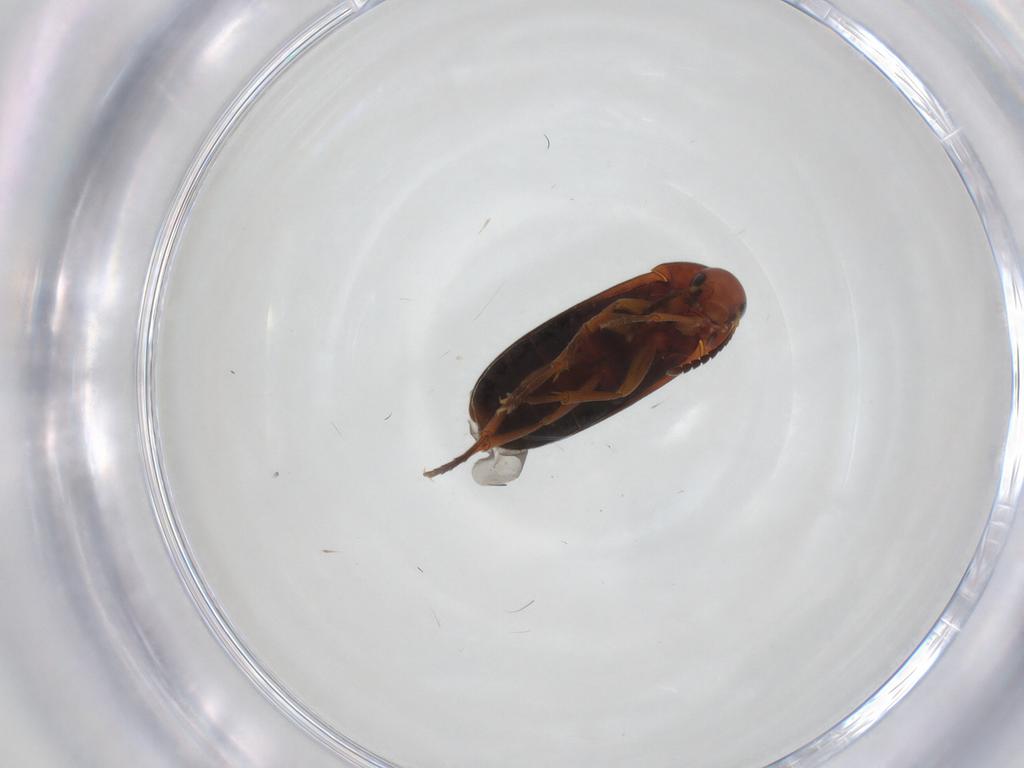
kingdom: Animalia
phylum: Arthropoda
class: Insecta
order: Coleoptera
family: Scraptiidae
